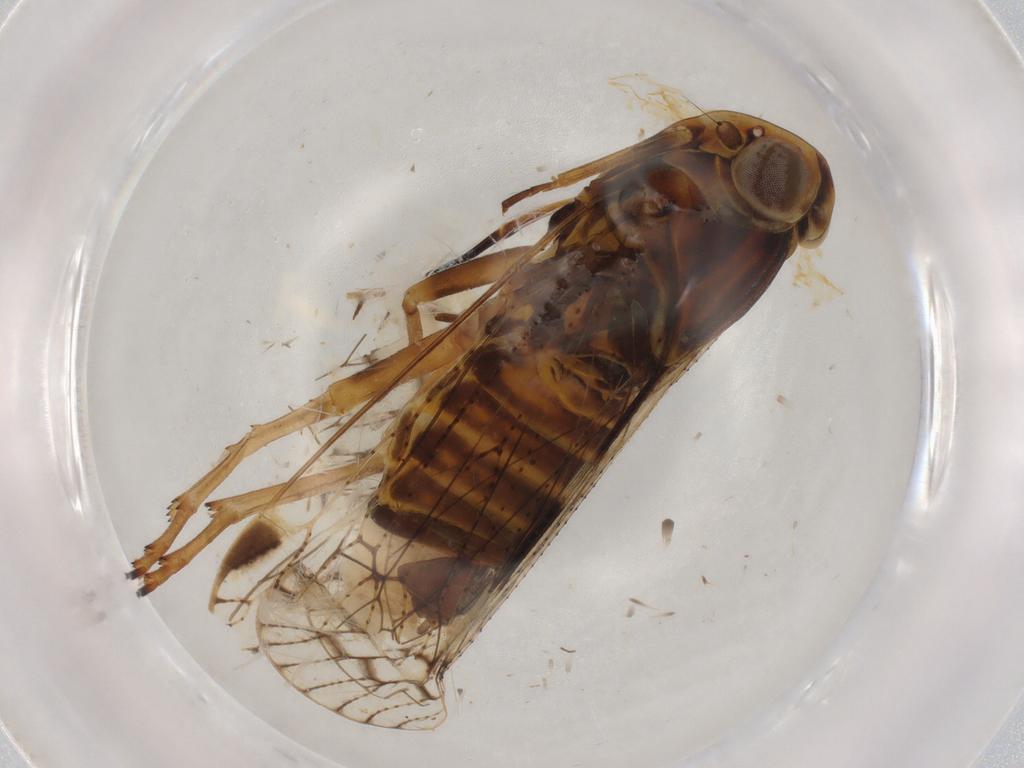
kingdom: Animalia
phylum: Arthropoda
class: Insecta
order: Hemiptera
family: Cixiidae
